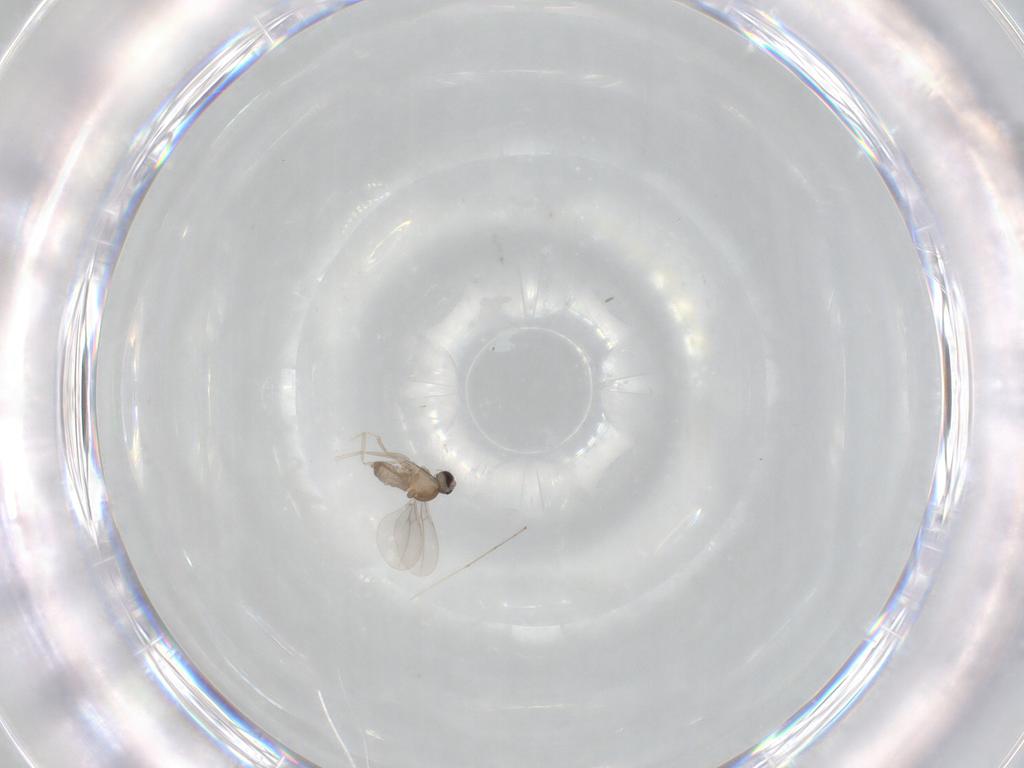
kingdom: Animalia
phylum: Arthropoda
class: Insecta
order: Diptera
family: Cecidomyiidae
